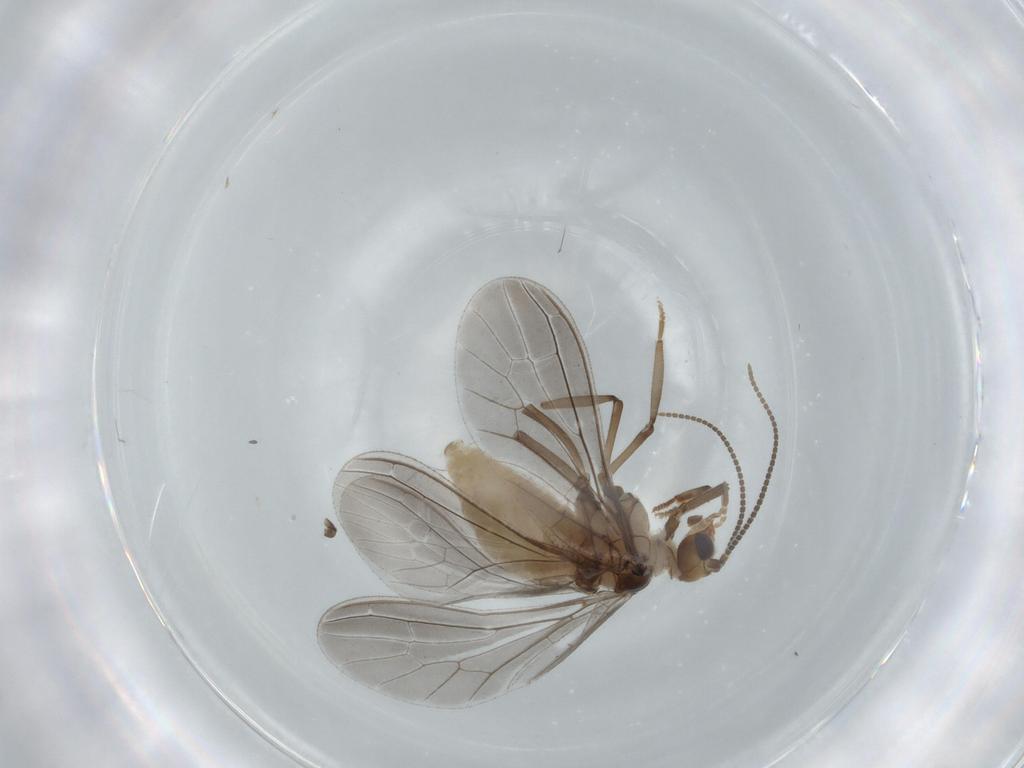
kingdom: Animalia
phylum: Arthropoda
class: Insecta
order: Neuroptera
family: Coniopterygidae
